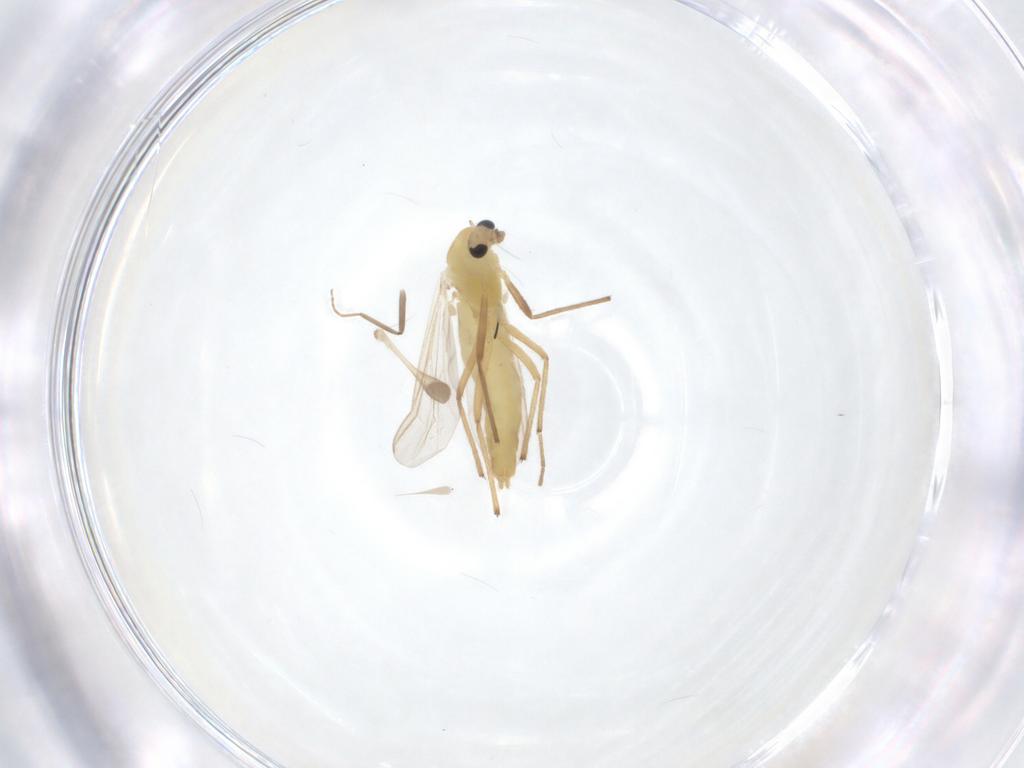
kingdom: Animalia
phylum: Arthropoda
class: Insecta
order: Diptera
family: Chironomidae
